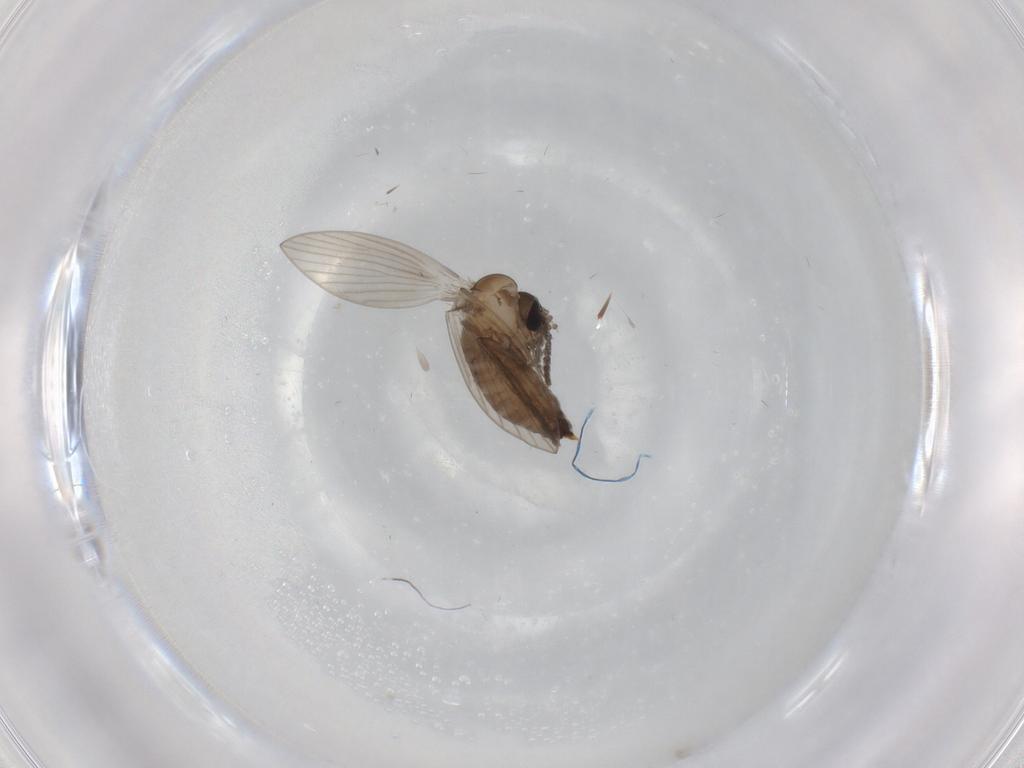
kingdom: Animalia
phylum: Arthropoda
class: Insecta
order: Diptera
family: Psychodidae
